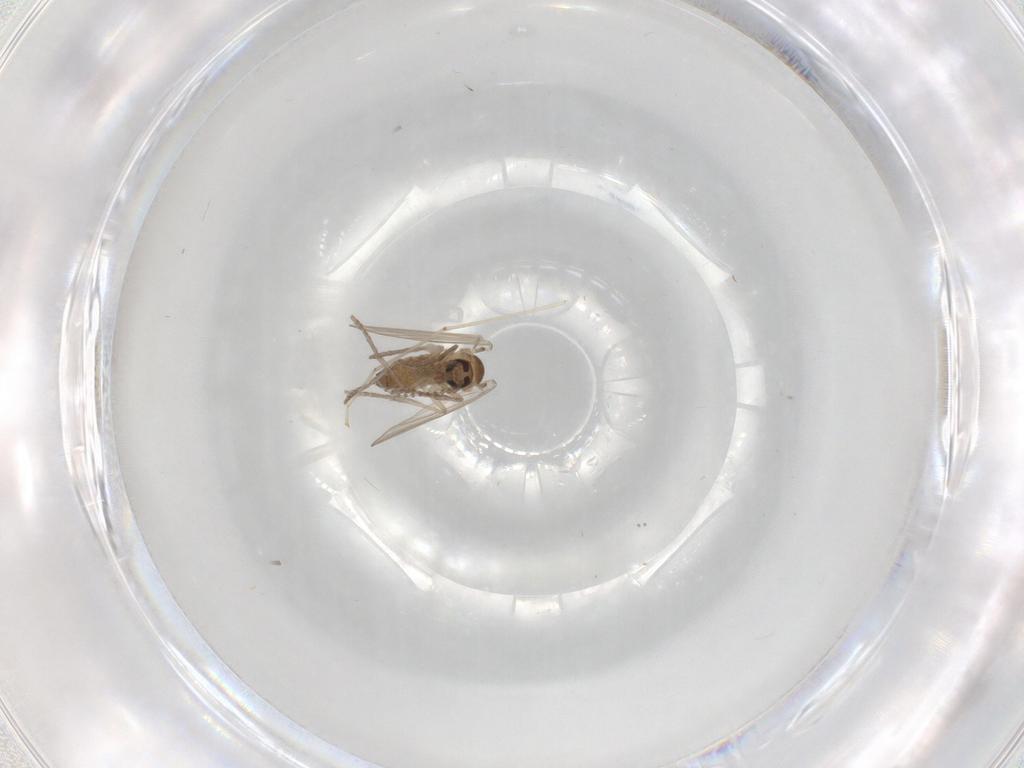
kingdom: Animalia
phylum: Arthropoda
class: Insecta
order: Diptera
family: Psychodidae
